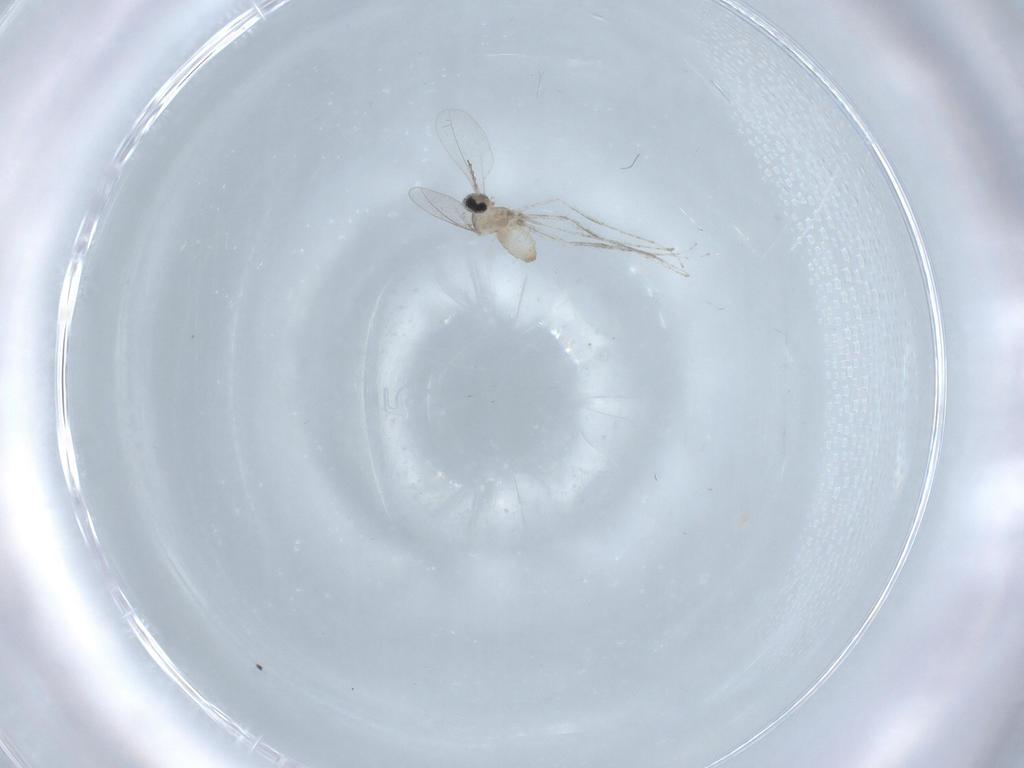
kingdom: Animalia
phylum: Arthropoda
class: Insecta
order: Diptera
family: Cecidomyiidae
